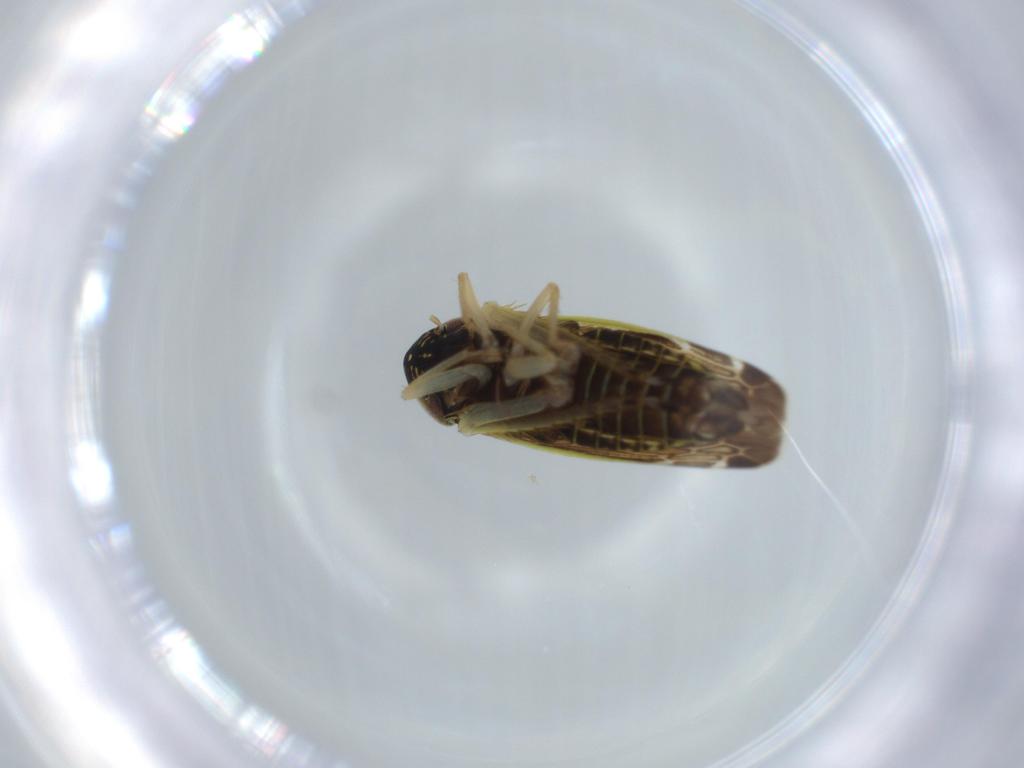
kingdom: Animalia
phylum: Arthropoda
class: Insecta
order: Hemiptera
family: Cicadellidae
